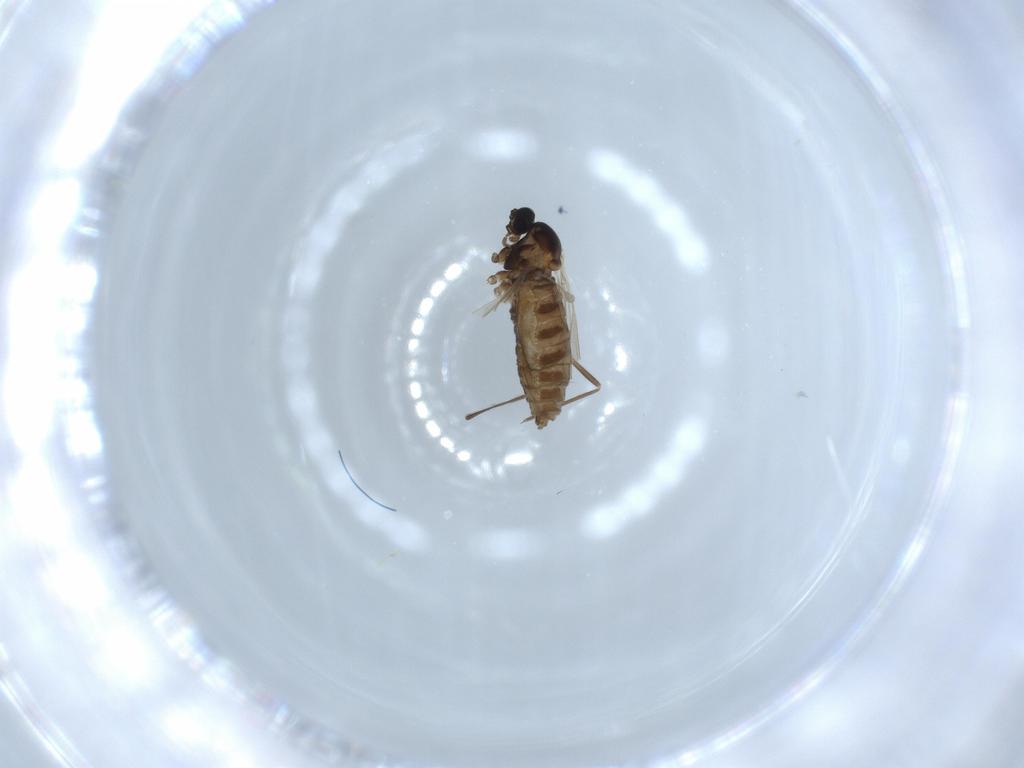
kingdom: Animalia
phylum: Arthropoda
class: Insecta
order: Diptera
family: Cecidomyiidae
